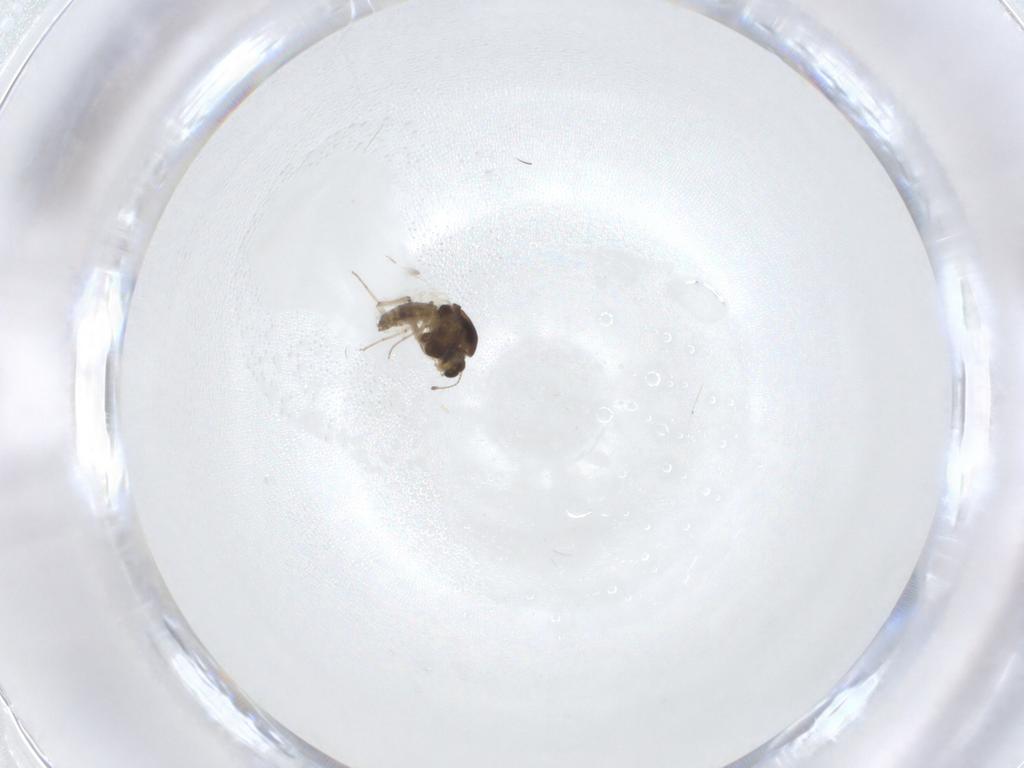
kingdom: Animalia
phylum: Arthropoda
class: Insecta
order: Diptera
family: Chironomidae
